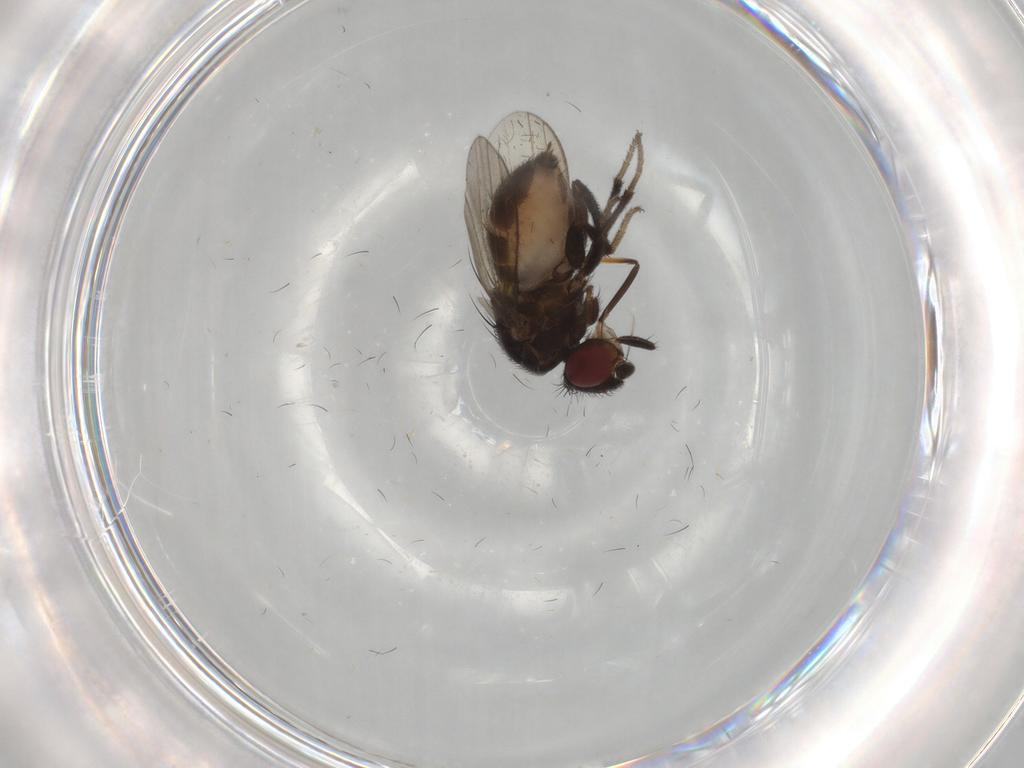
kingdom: Animalia
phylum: Arthropoda
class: Insecta
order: Diptera
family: Milichiidae
